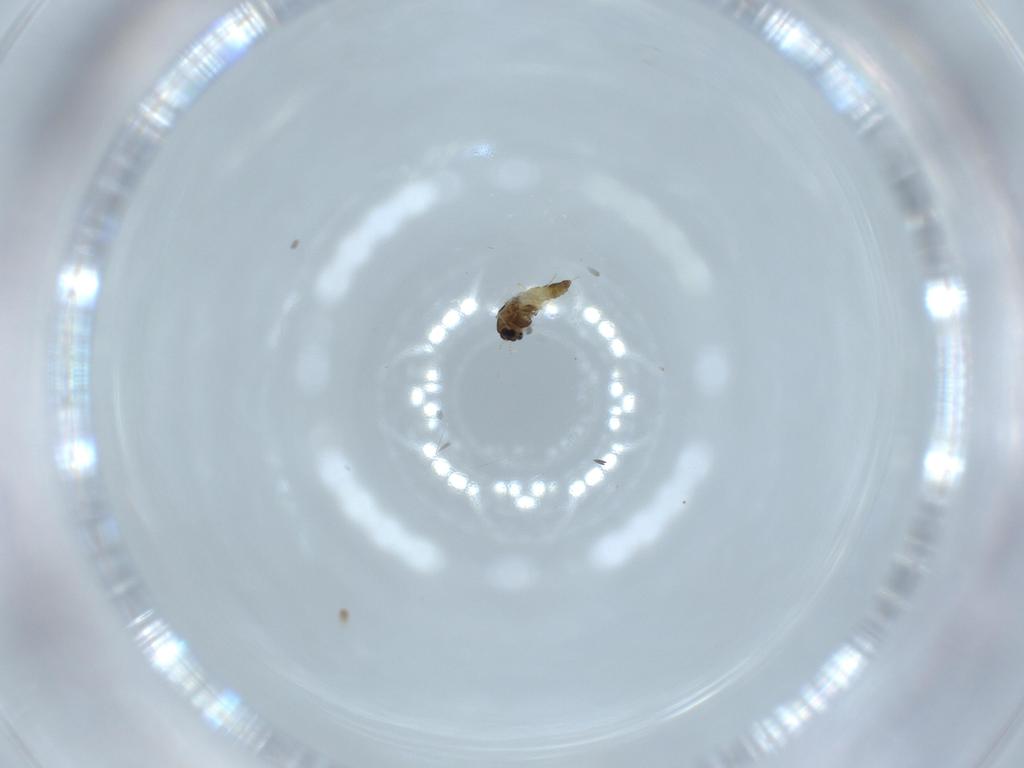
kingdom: Animalia
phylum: Arthropoda
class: Insecta
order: Diptera
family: Chironomidae
